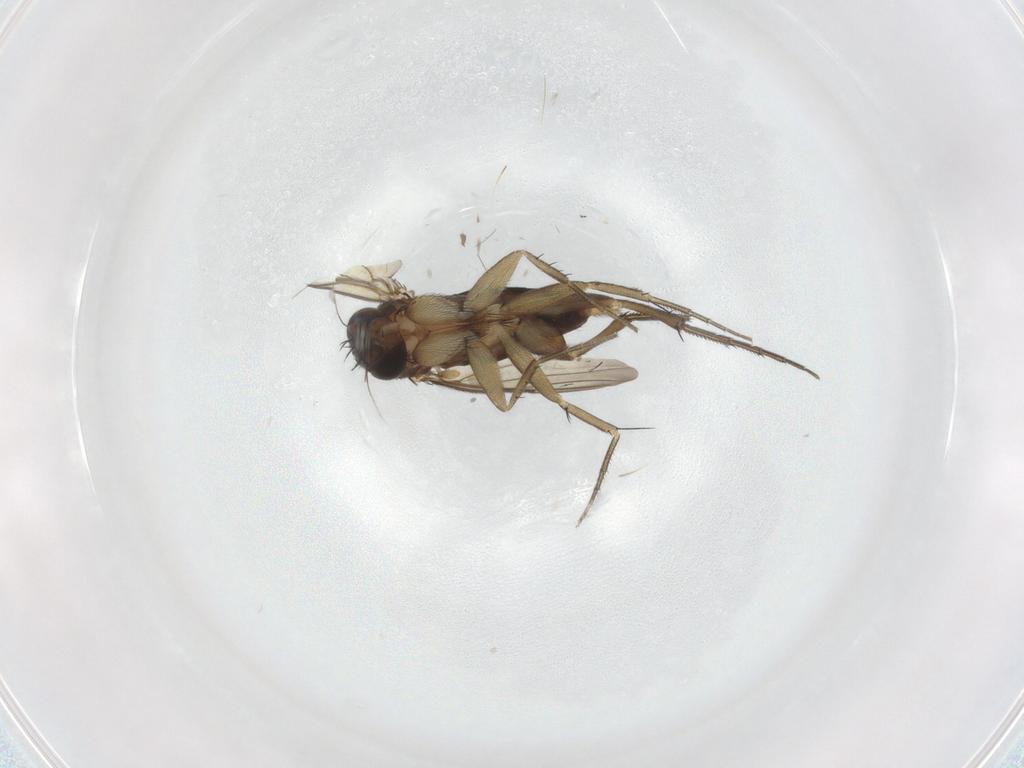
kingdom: Animalia
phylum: Arthropoda
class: Insecta
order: Diptera
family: Phoridae
